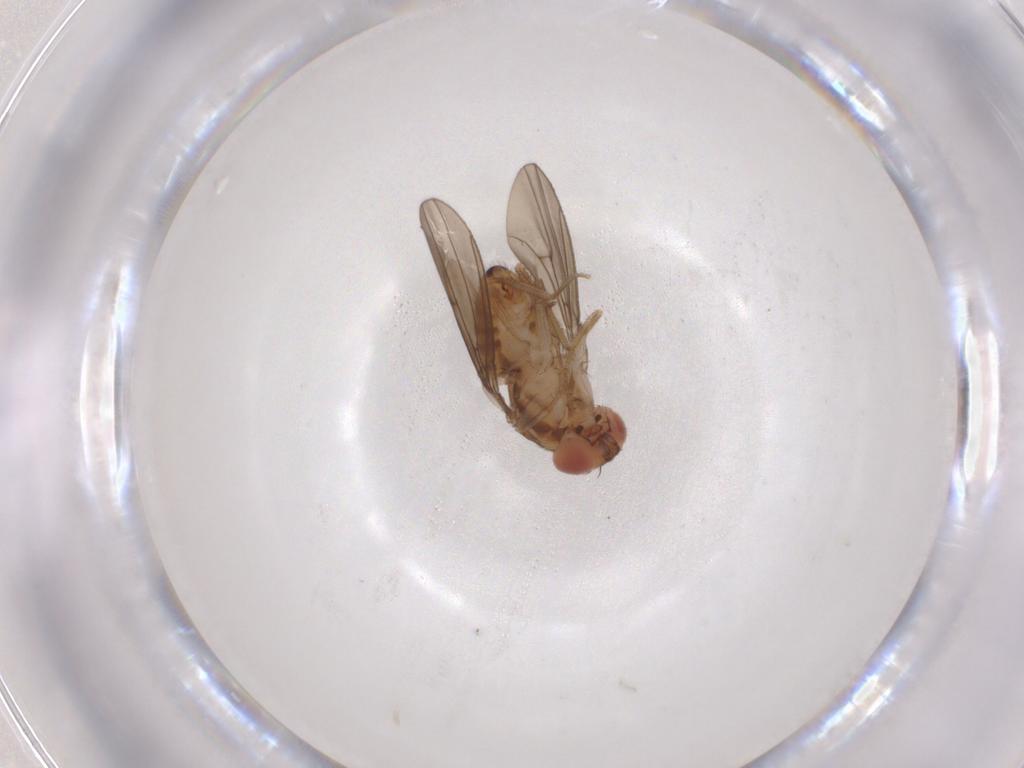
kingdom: Animalia
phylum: Arthropoda
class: Insecta
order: Diptera
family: Muscidae
